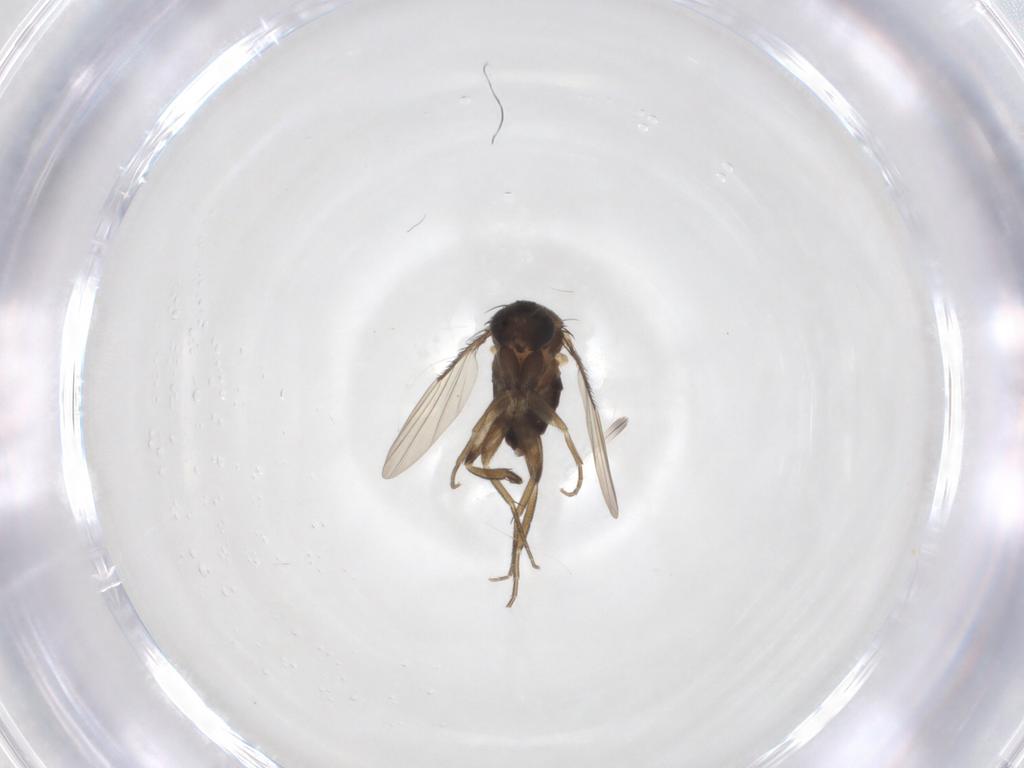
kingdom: Animalia
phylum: Arthropoda
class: Insecta
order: Diptera
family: Phoridae
